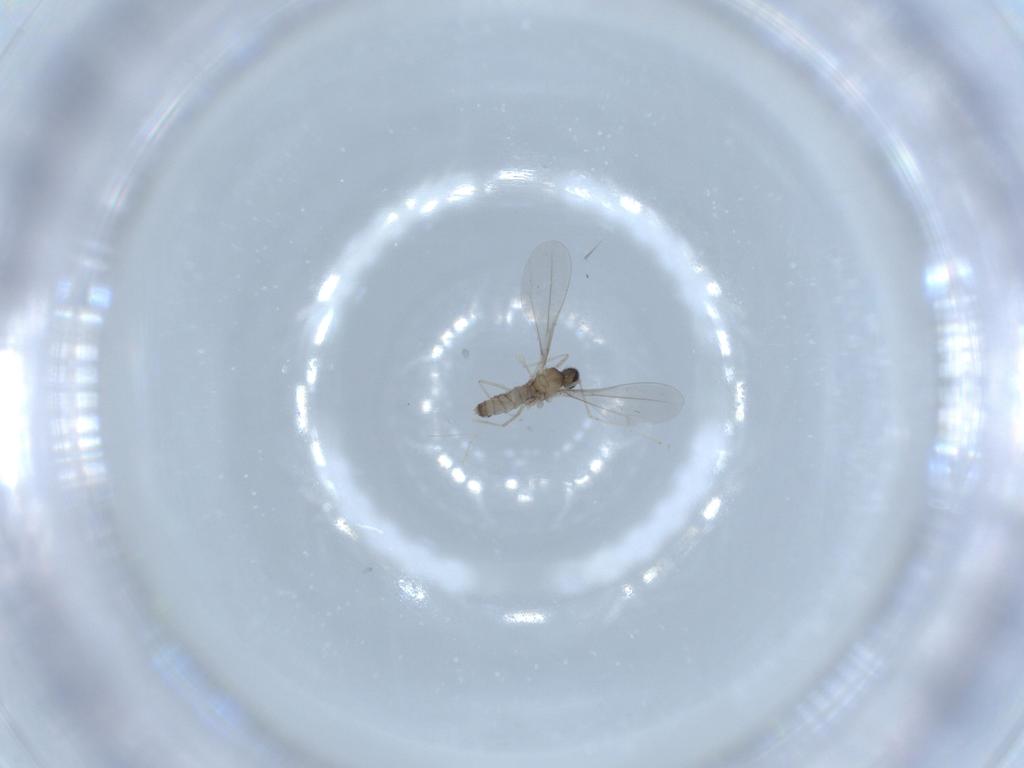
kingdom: Animalia
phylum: Arthropoda
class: Insecta
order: Diptera
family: Cecidomyiidae
